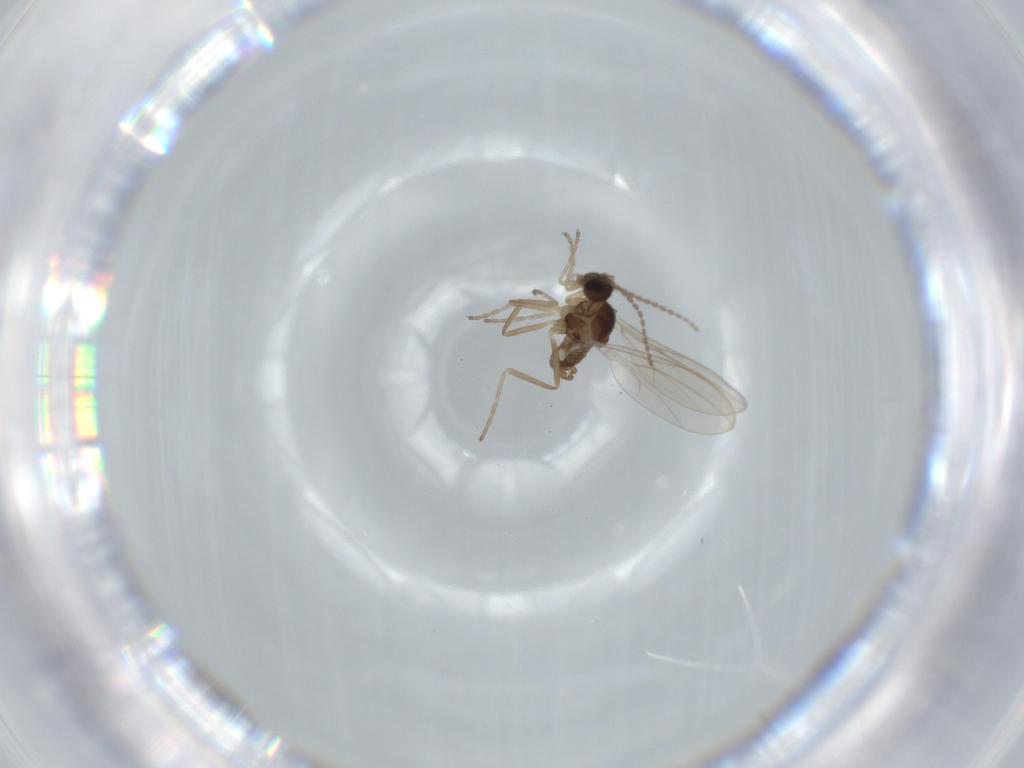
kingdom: Animalia
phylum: Arthropoda
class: Insecta
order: Diptera
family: Cecidomyiidae
